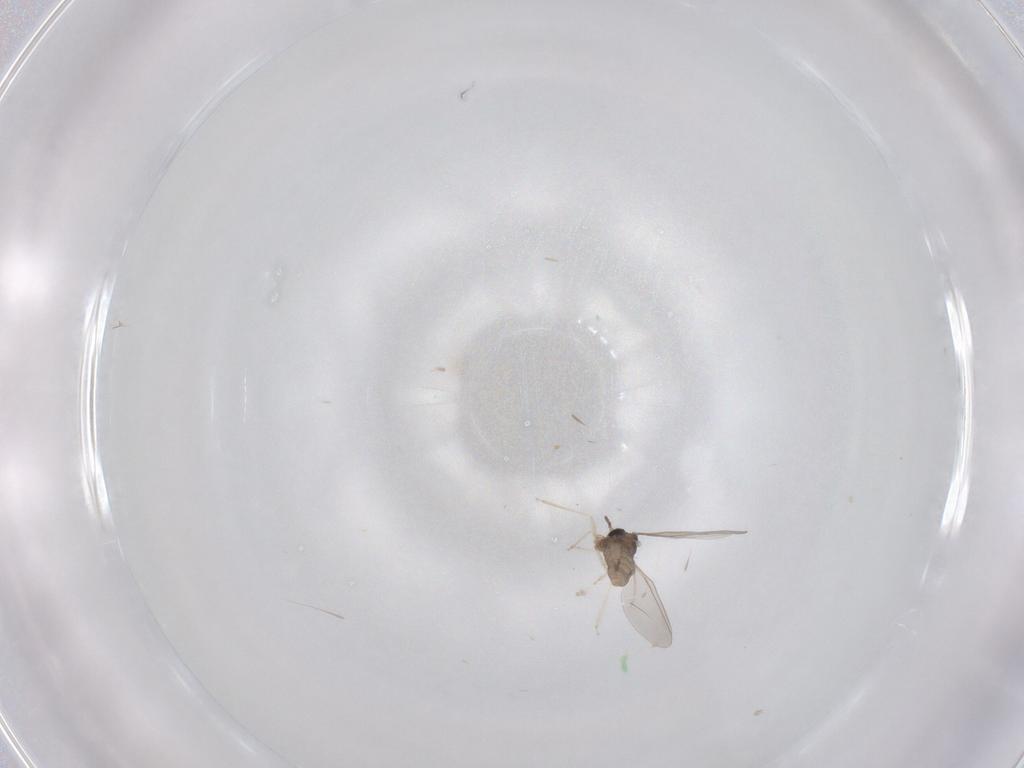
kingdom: Animalia
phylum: Arthropoda
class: Insecta
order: Diptera
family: Cecidomyiidae
